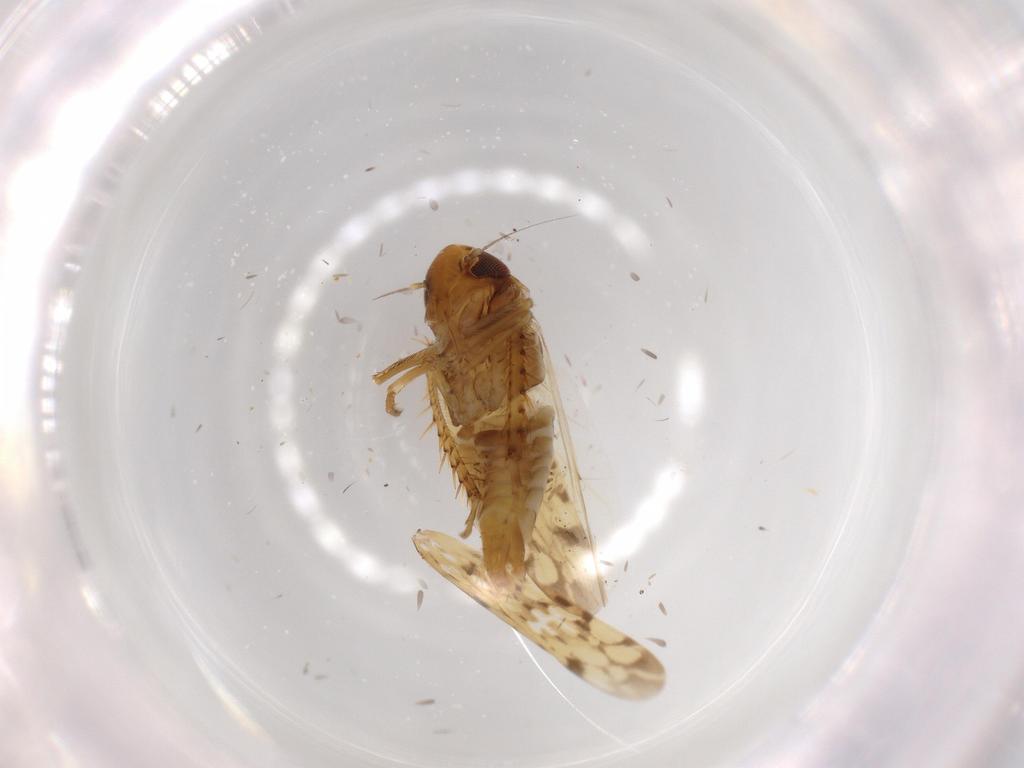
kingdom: Animalia
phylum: Arthropoda
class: Insecta
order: Hemiptera
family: Cicadellidae
